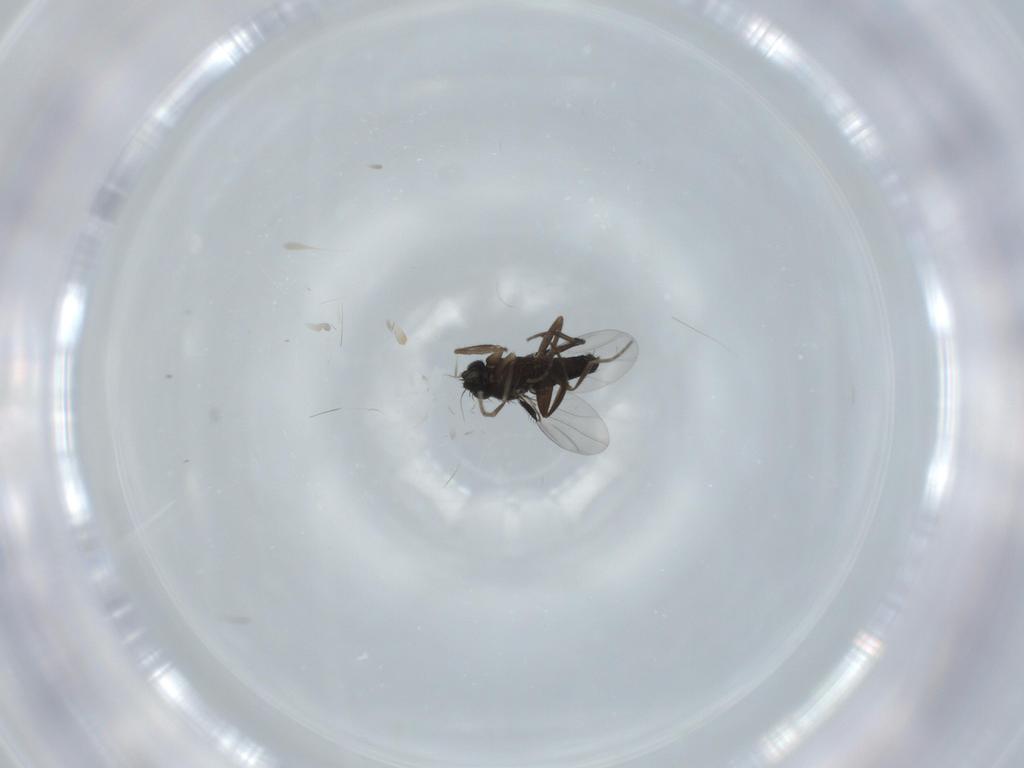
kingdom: Animalia
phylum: Arthropoda
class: Insecta
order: Diptera
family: Phoridae
